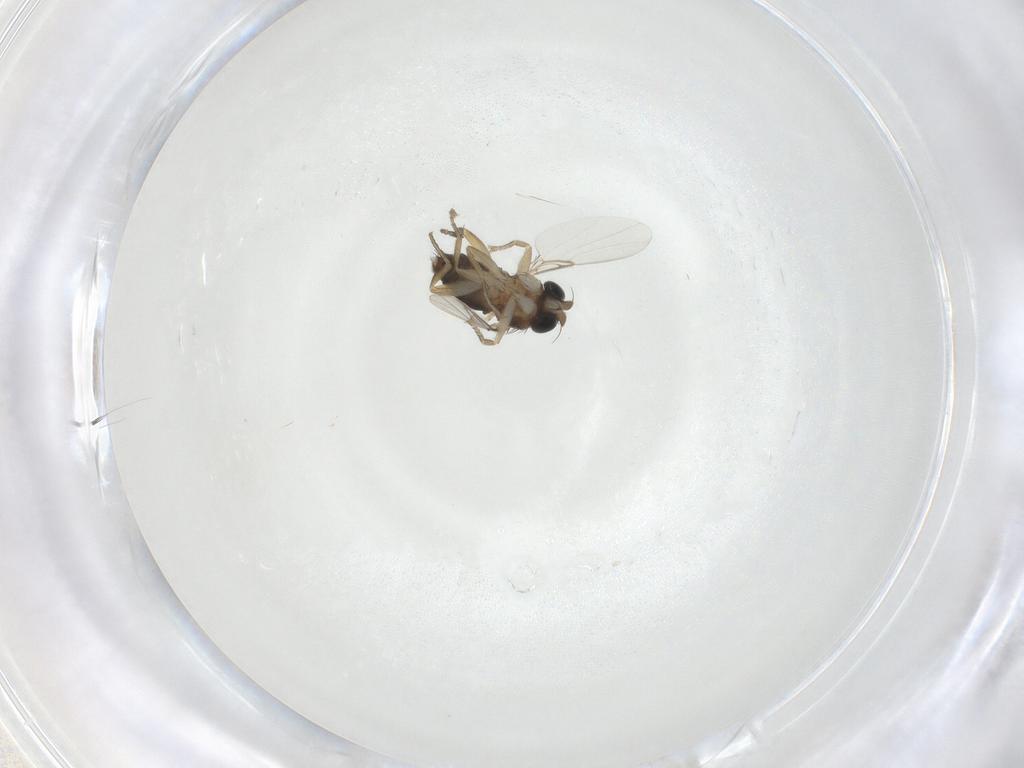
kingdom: Animalia
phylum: Arthropoda
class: Insecta
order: Diptera
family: Phoridae
